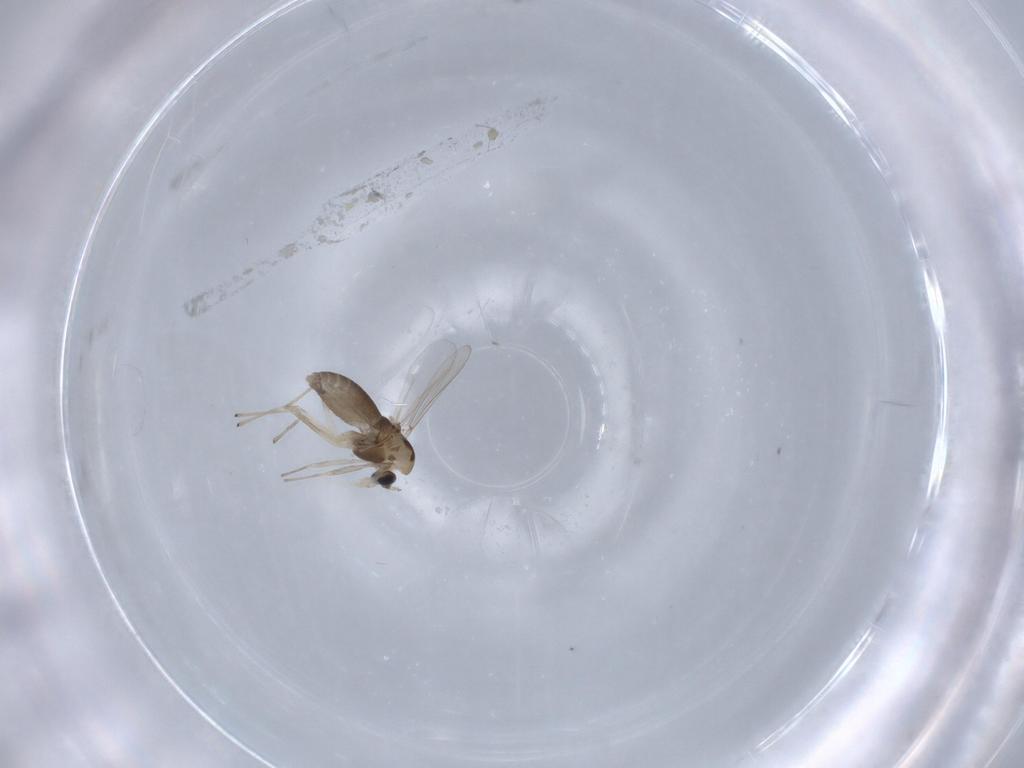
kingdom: Animalia
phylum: Arthropoda
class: Insecta
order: Diptera
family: Chironomidae
